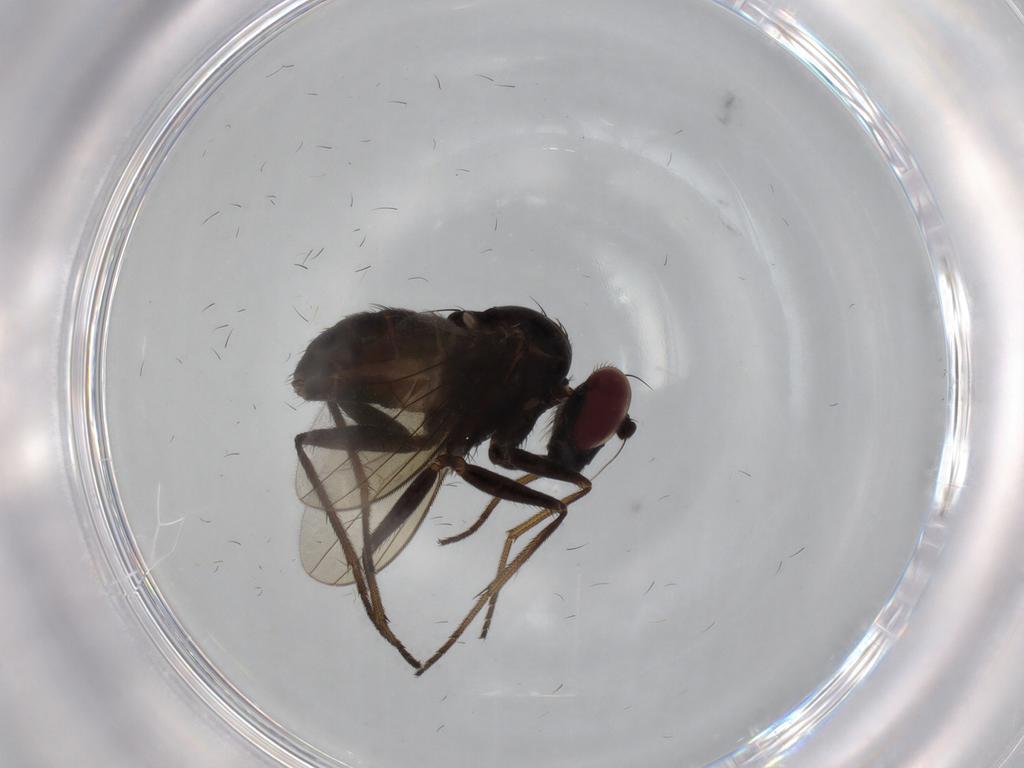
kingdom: Animalia
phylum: Arthropoda
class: Insecta
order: Diptera
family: Dolichopodidae
